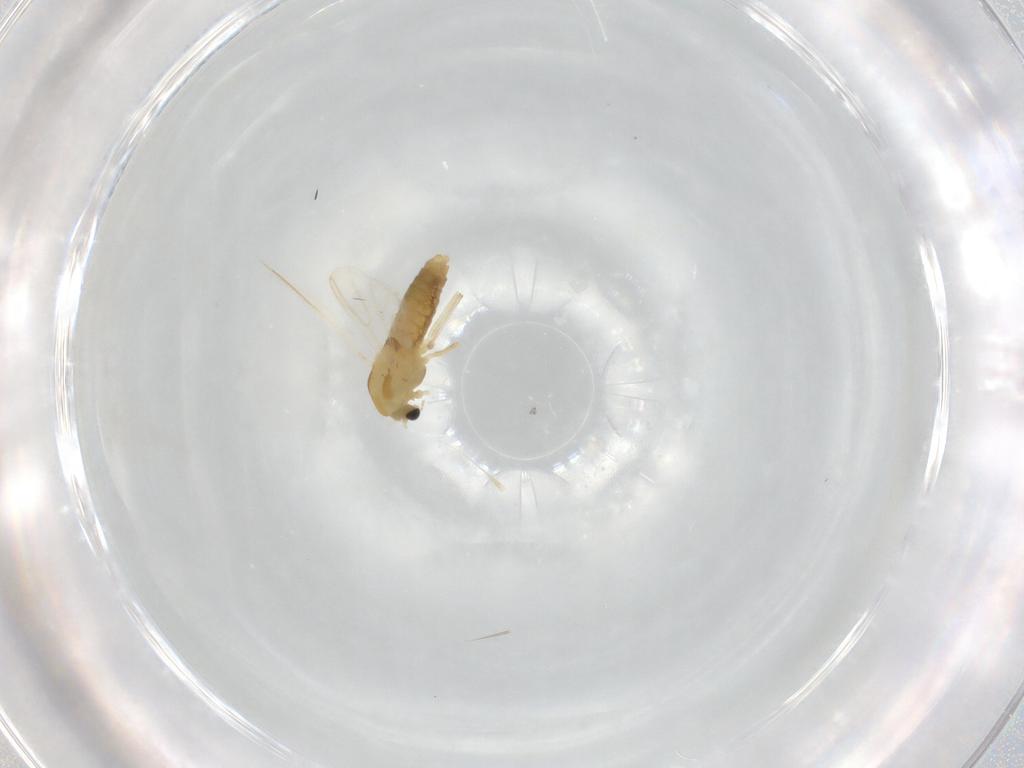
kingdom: Animalia
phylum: Arthropoda
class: Insecta
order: Diptera
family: Chironomidae
